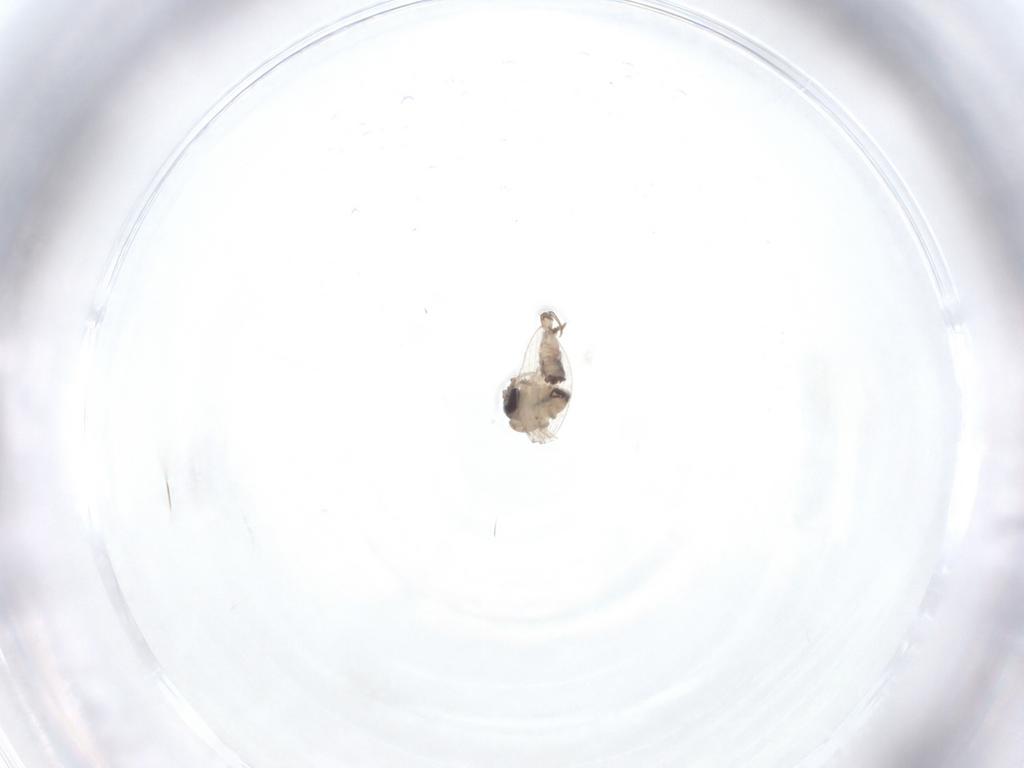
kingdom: Animalia
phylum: Arthropoda
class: Insecta
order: Diptera
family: Psychodidae
